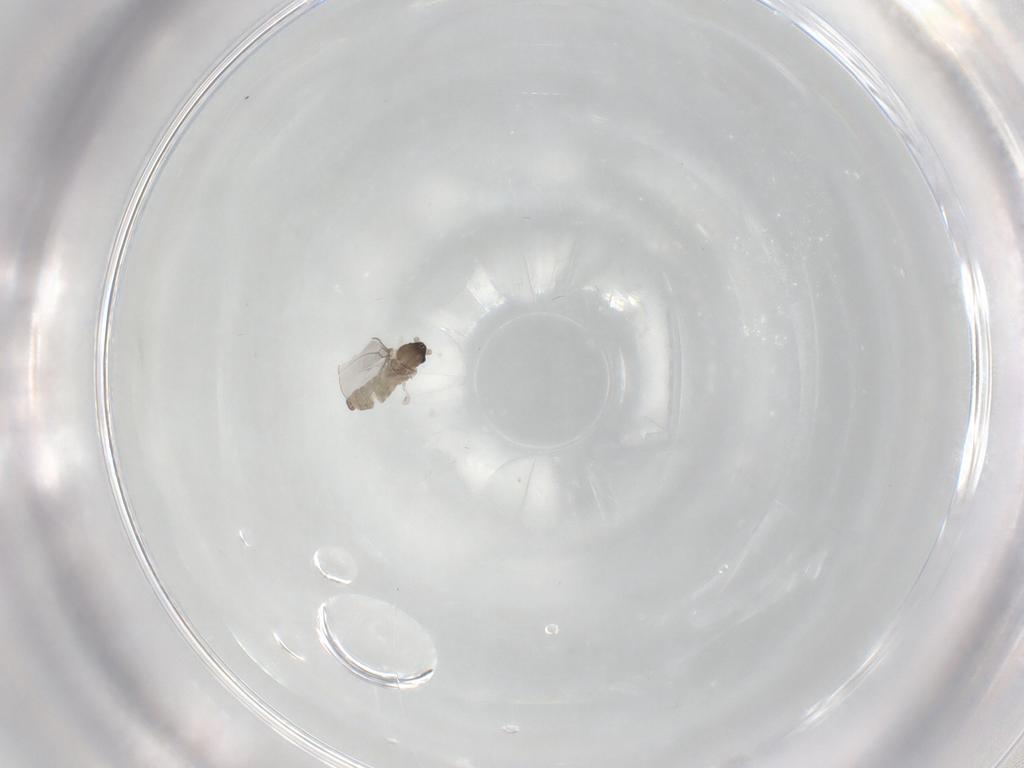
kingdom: Animalia
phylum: Arthropoda
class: Insecta
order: Diptera
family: Cecidomyiidae
